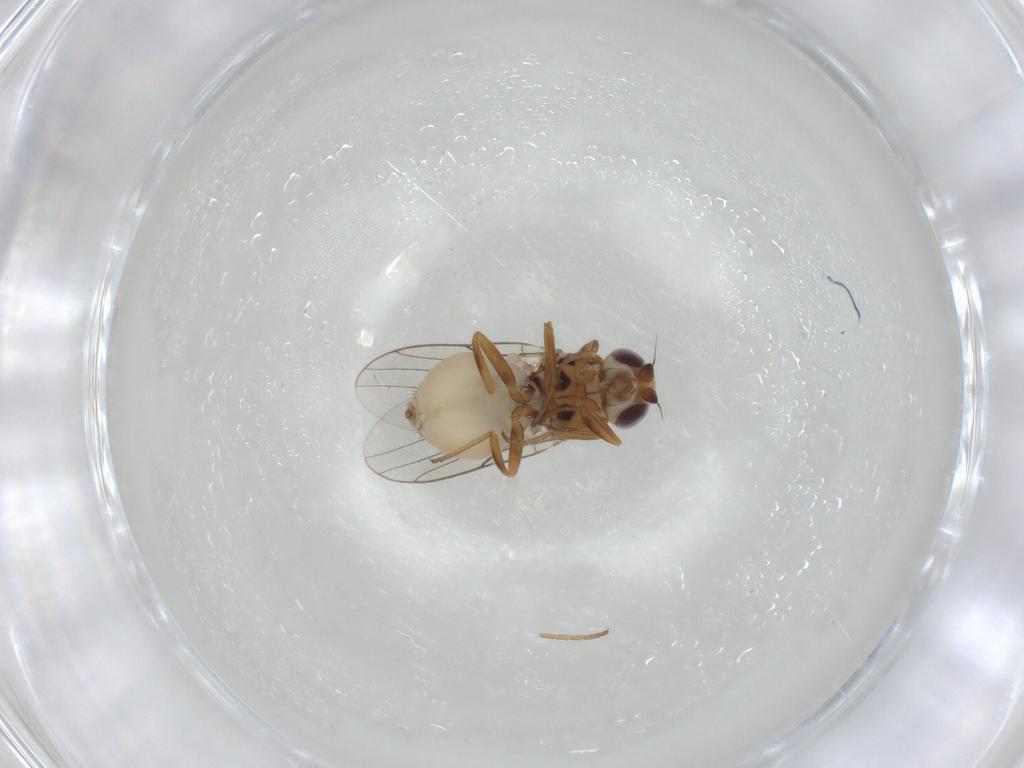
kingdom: Animalia
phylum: Arthropoda
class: Insecta
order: Diptera
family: Chloropidae
